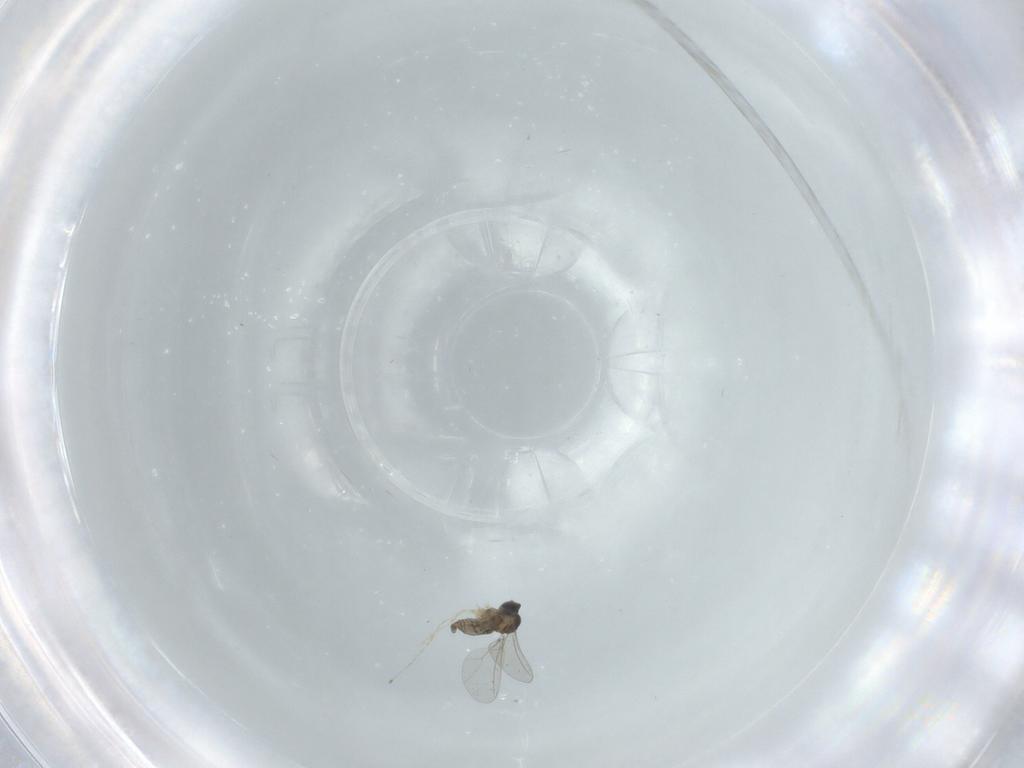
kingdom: Animalia
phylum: Arthropoda
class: Insecta
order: Diptera
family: Cecidomyiidae
